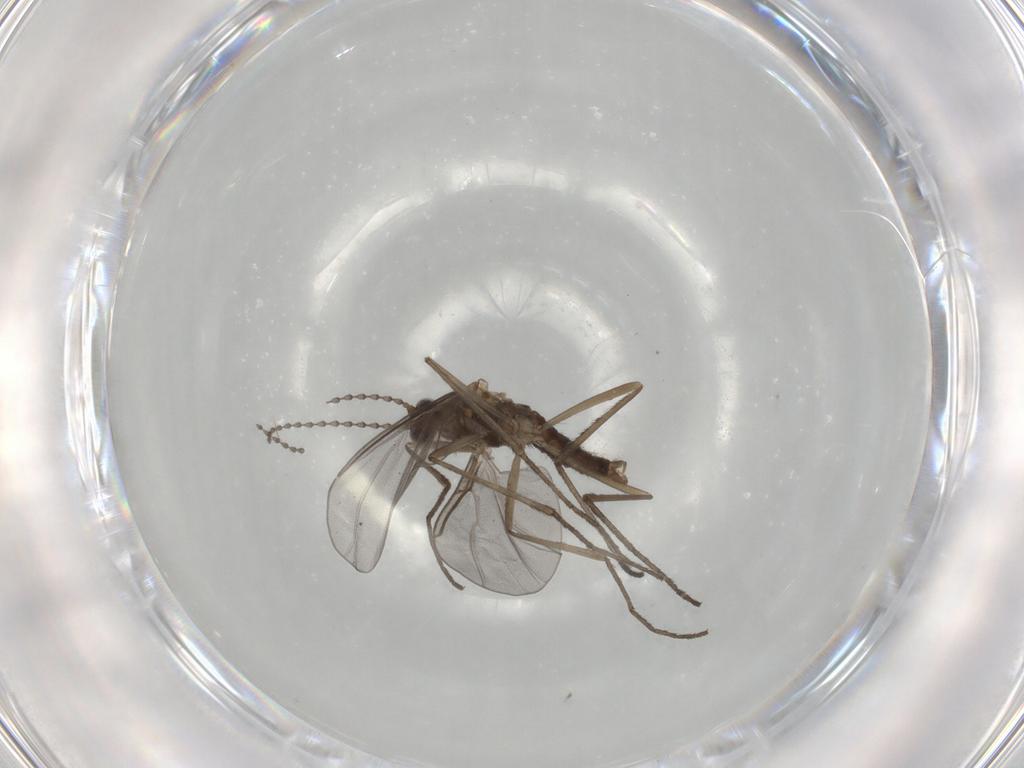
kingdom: Animalia
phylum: Arthropoda
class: Insecta
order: Diptera
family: Cecidomyiidae
